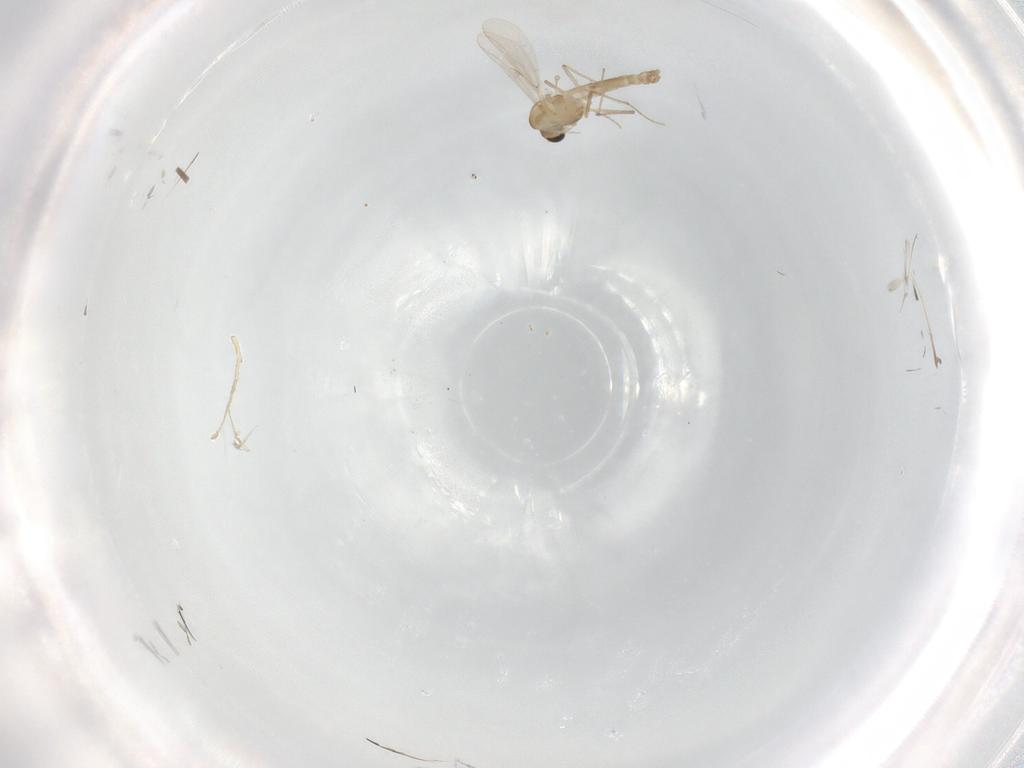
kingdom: Animalia
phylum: Arthropoda
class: Insecta
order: Diptera
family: Chironomidae
